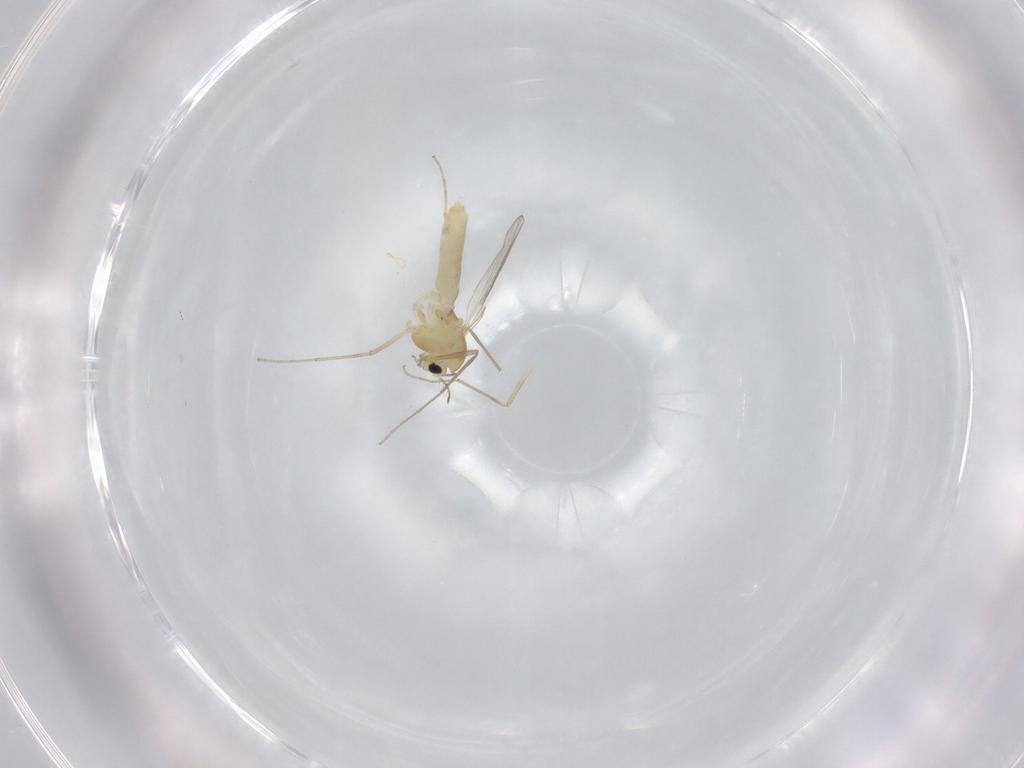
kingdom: Animalia
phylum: Arthropoda
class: Insecta
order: Diptera
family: Chironomidae
